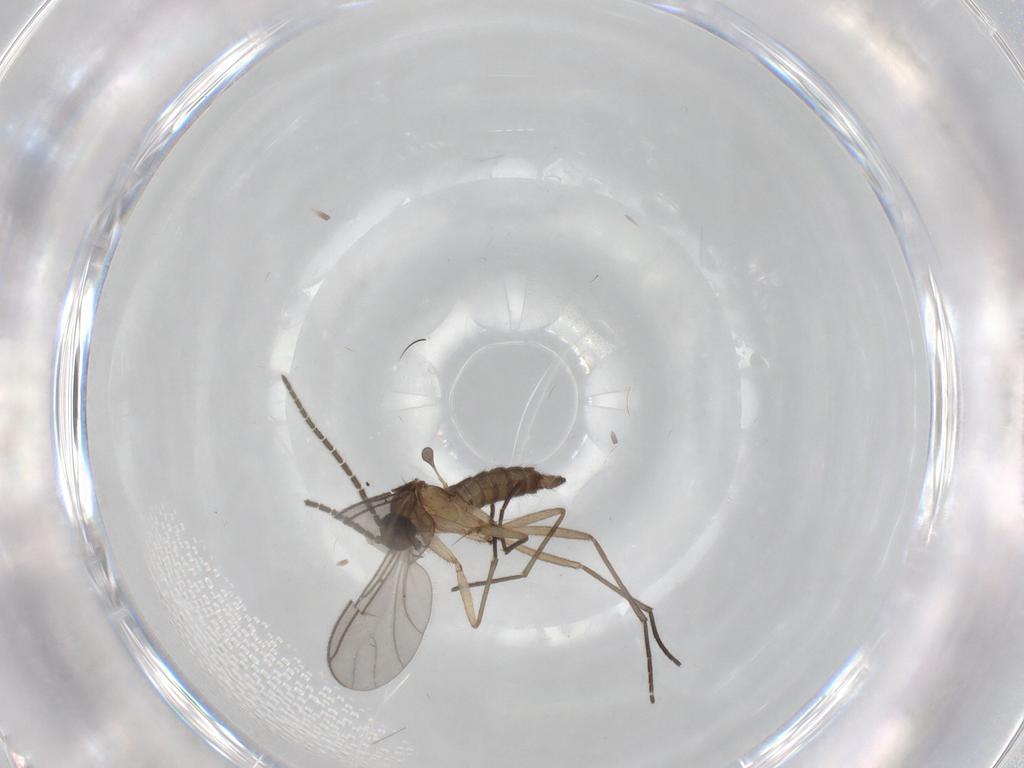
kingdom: Animalia
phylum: Arthropoda
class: Insecta
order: Diptera
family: Sciaridae
